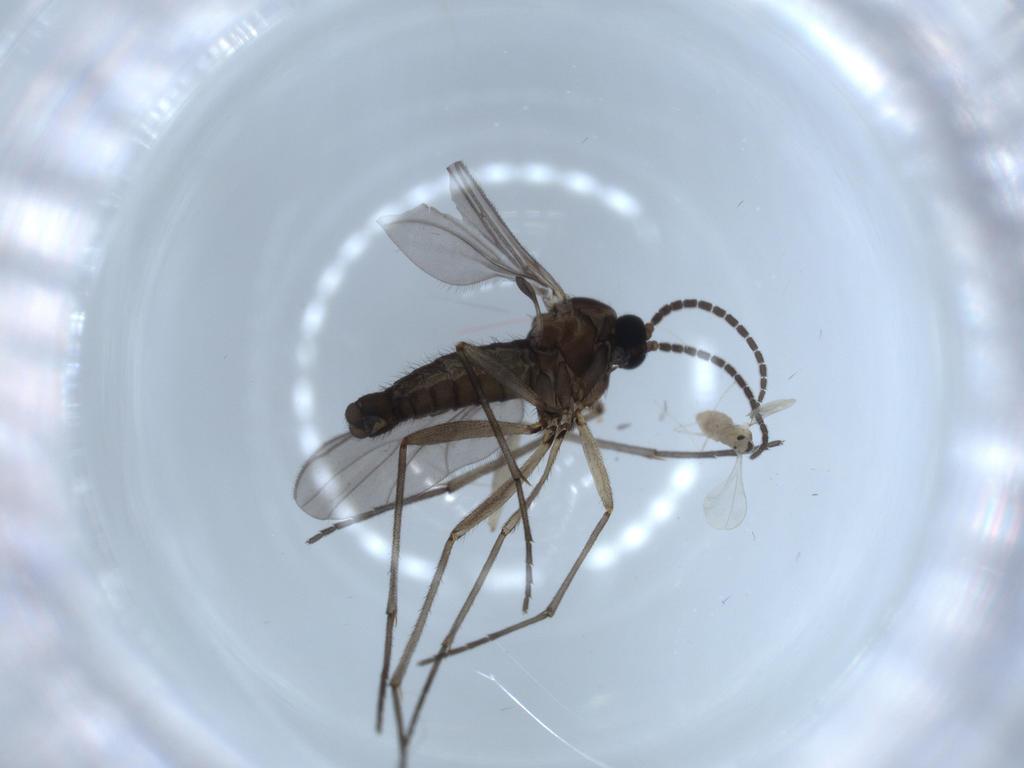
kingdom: Animalia
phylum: Arthropoda
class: Insecta
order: Diptera
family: Sciaridae
